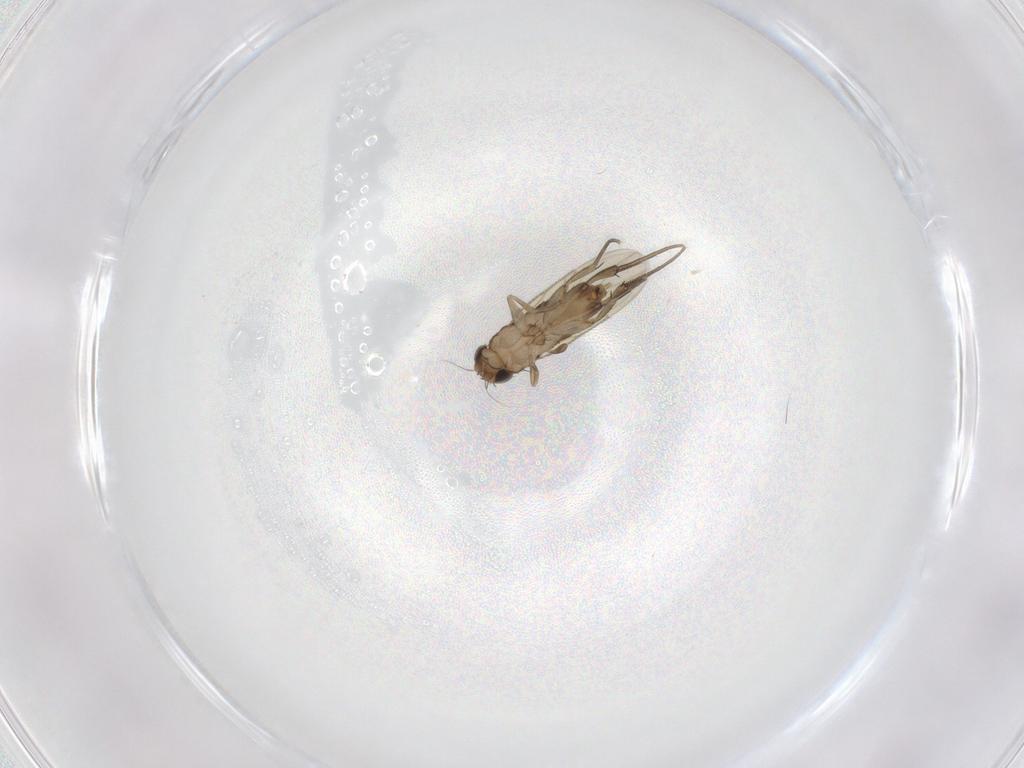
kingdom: Animalia
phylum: Arthropoda
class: Insecta
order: Diptera
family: Phoridae
